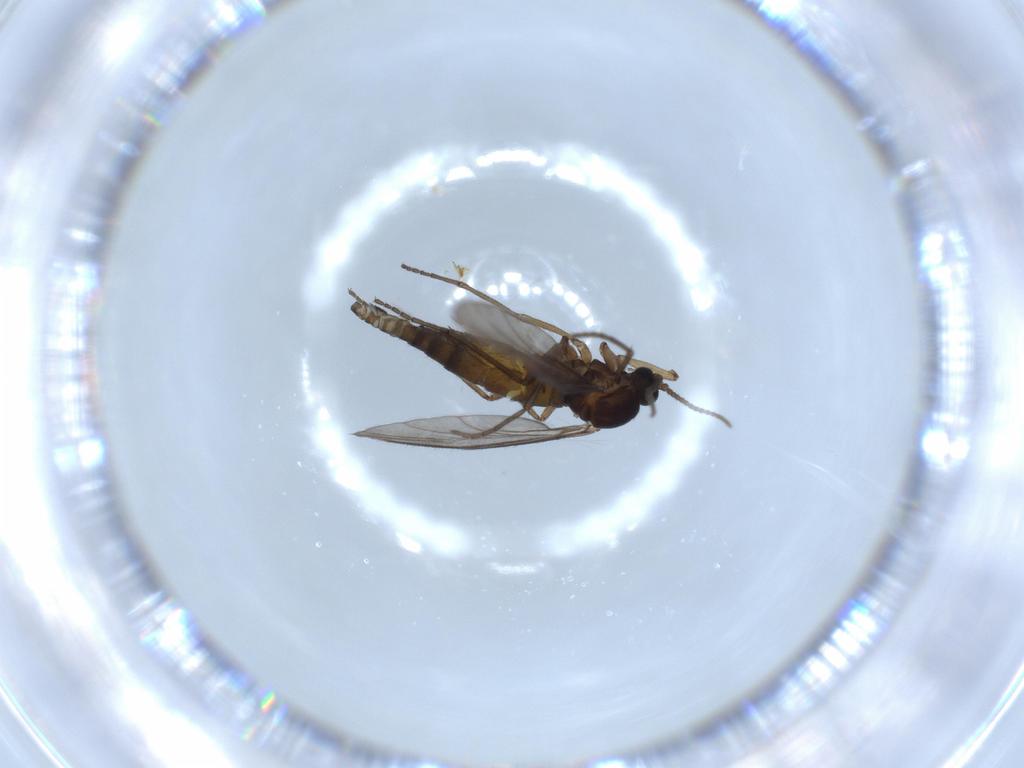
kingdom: Animalia
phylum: Arthropoda
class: Insecta
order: Diptera
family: Sciaridae
